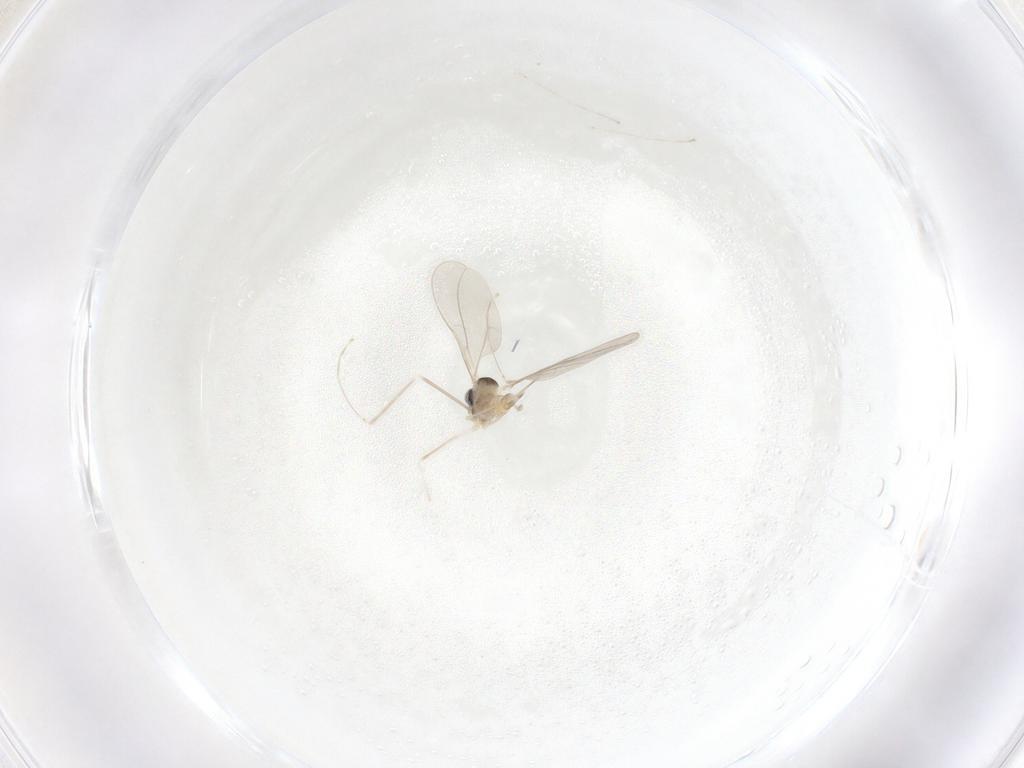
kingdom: Animalia
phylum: Arthropoda
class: Insecta
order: Diptera
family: Cecidomyiidae
